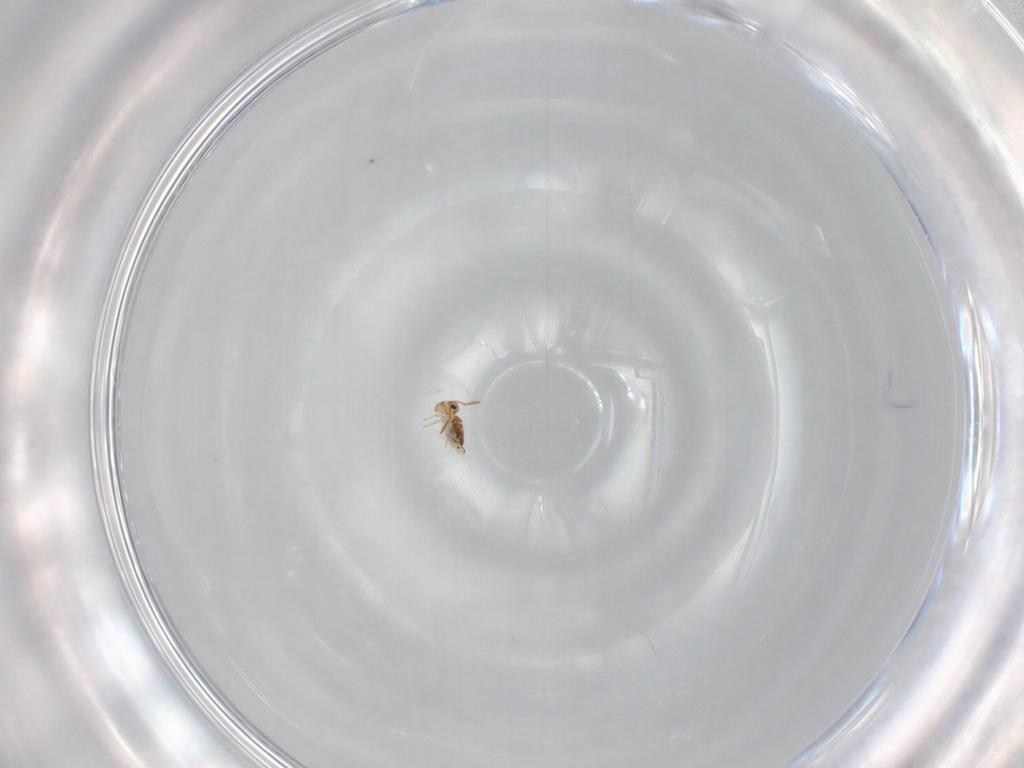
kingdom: Animalia
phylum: Arthropoda
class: Collembola
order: Symphypleona
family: Bourletiellidae
